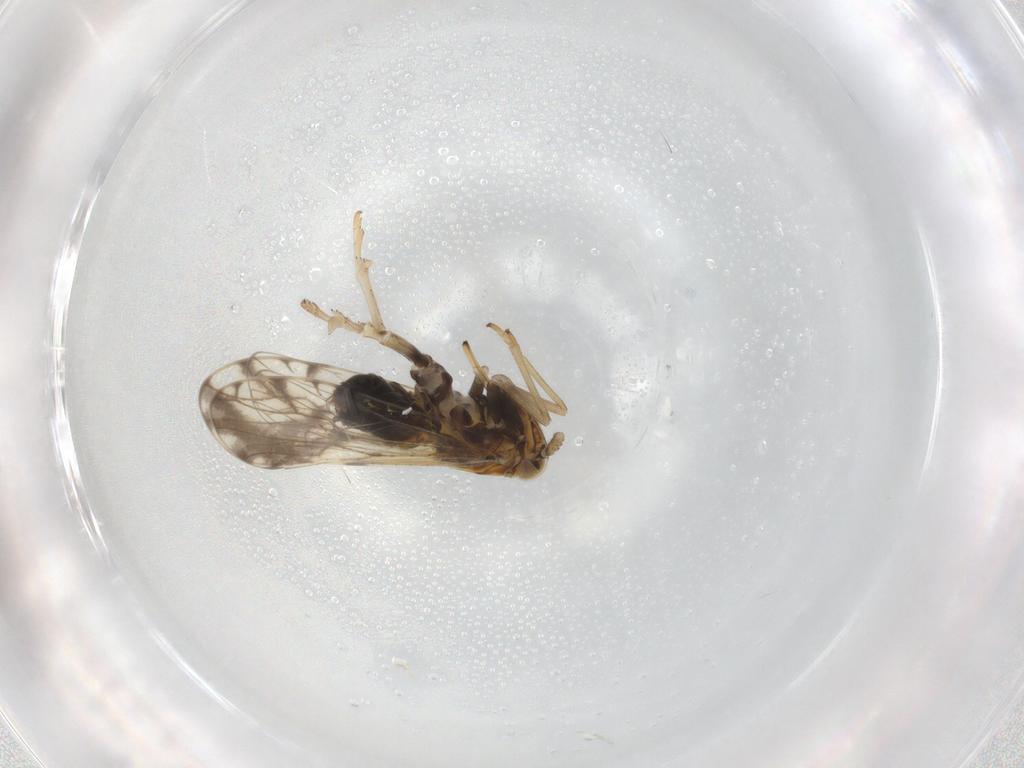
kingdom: Animalia
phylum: Arthropoda
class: Insecta
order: Hemiptera
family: Delphacidae
